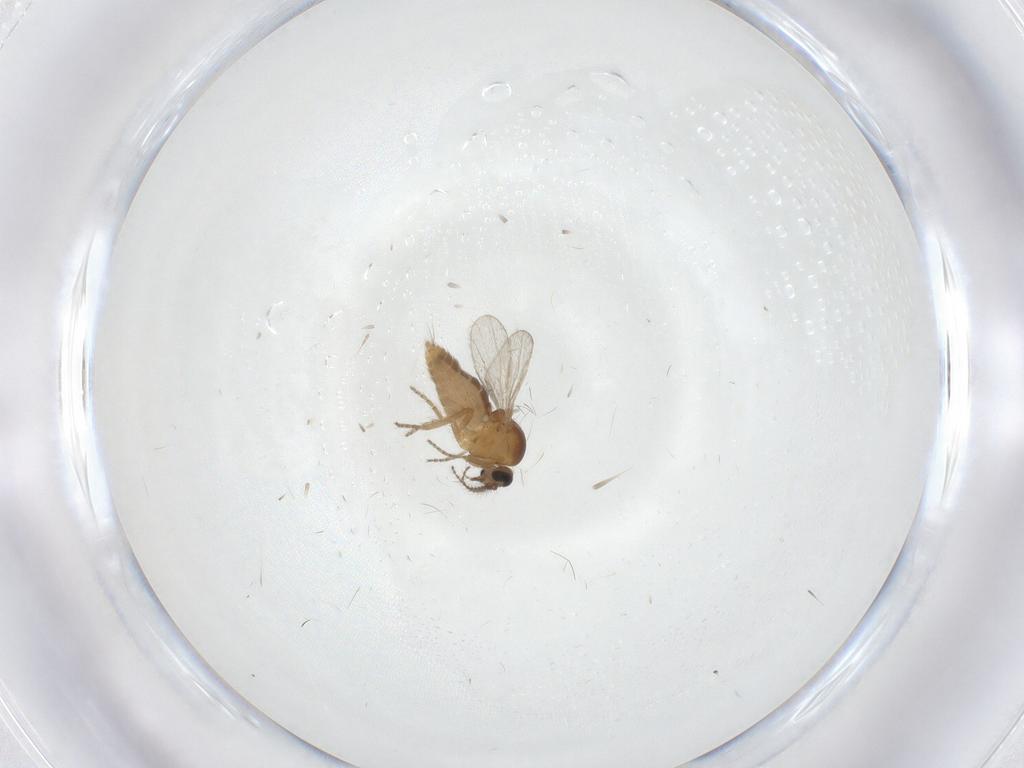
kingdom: Animalia
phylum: Arthropoda
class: Insecta
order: Diptera
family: Ceratopogonidae
